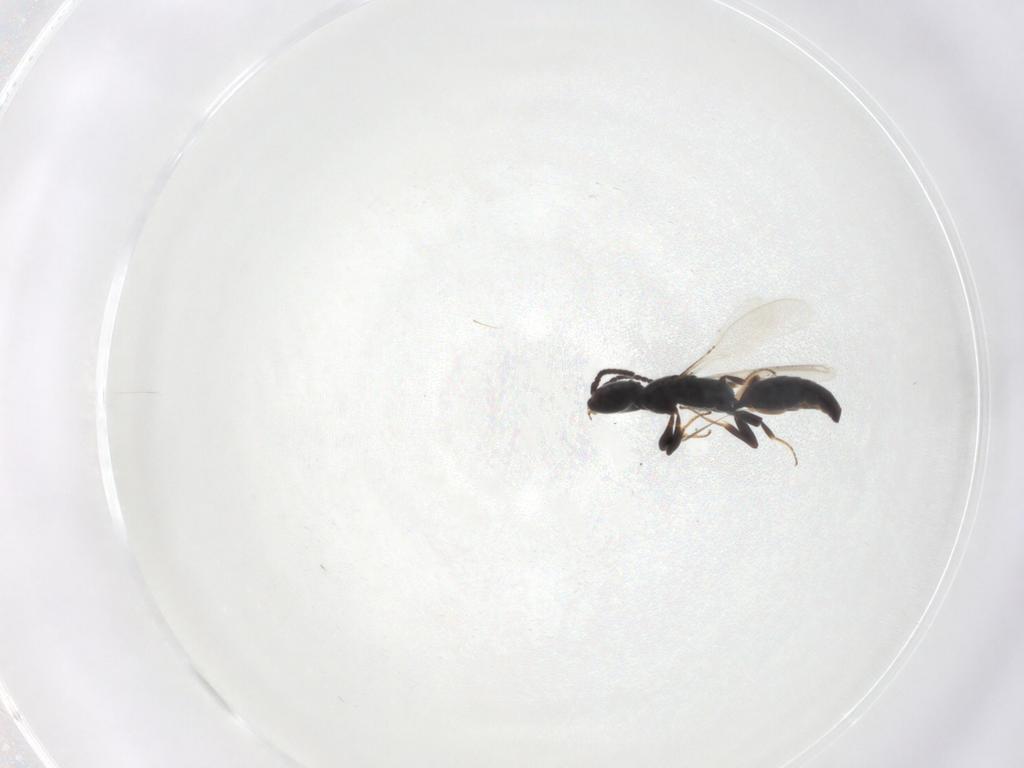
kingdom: Animalia
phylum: Arthropoda
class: Insecta
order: Hymenoptera
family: Bethylidae
